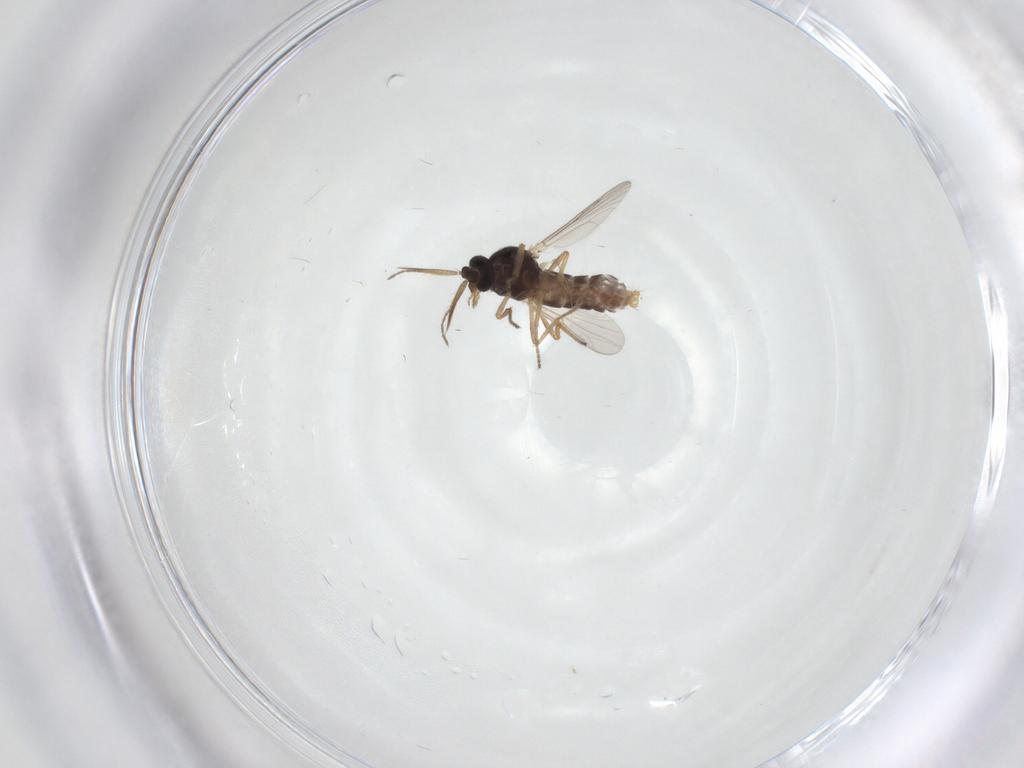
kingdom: Animalia
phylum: Arthropoda
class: Insecta
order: Diptera
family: Ceratopogonidae
